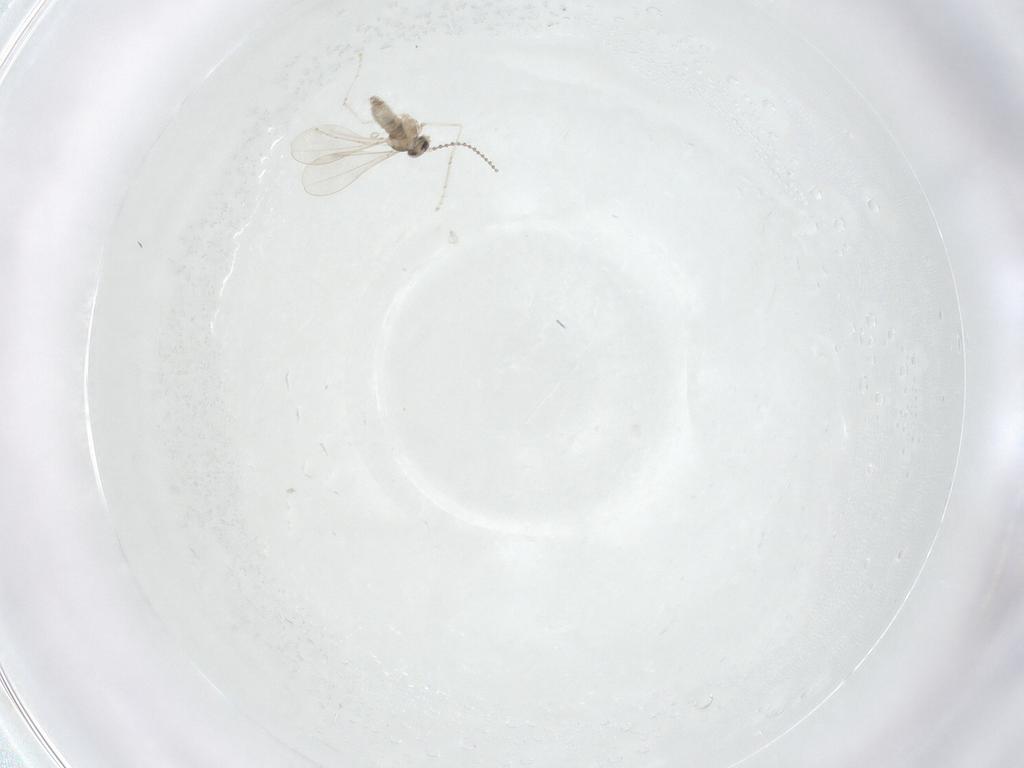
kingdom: Animalia
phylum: Arthropoda
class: Insecta
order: Diptera
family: Cecidomyiidae
